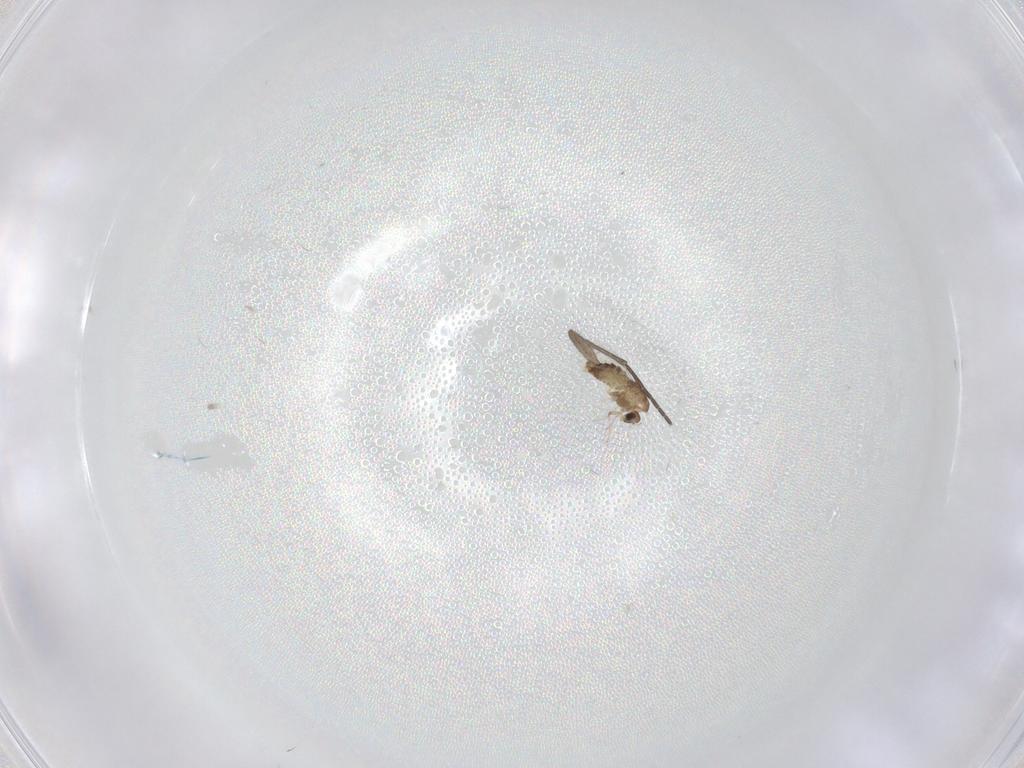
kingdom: Animalia
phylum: Arthropoda
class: Insecta
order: Diptera
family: Chironomidae
